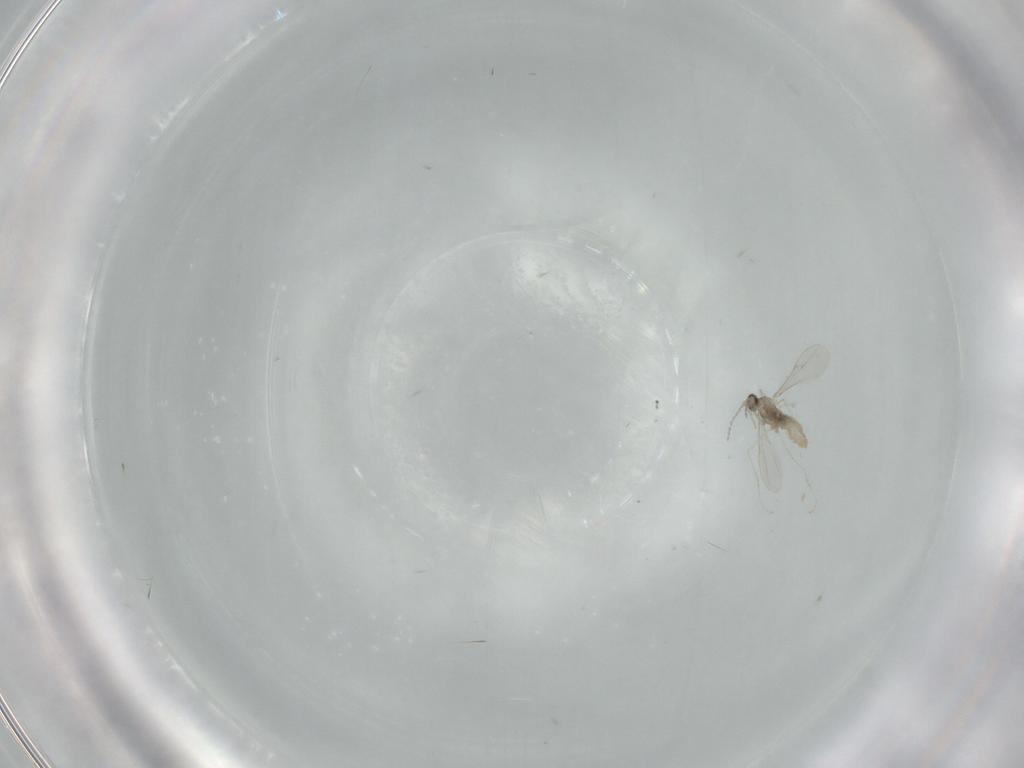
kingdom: Animalia
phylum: Arthropoda
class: Insecta
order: Diptera
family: Cecidomyiidae
